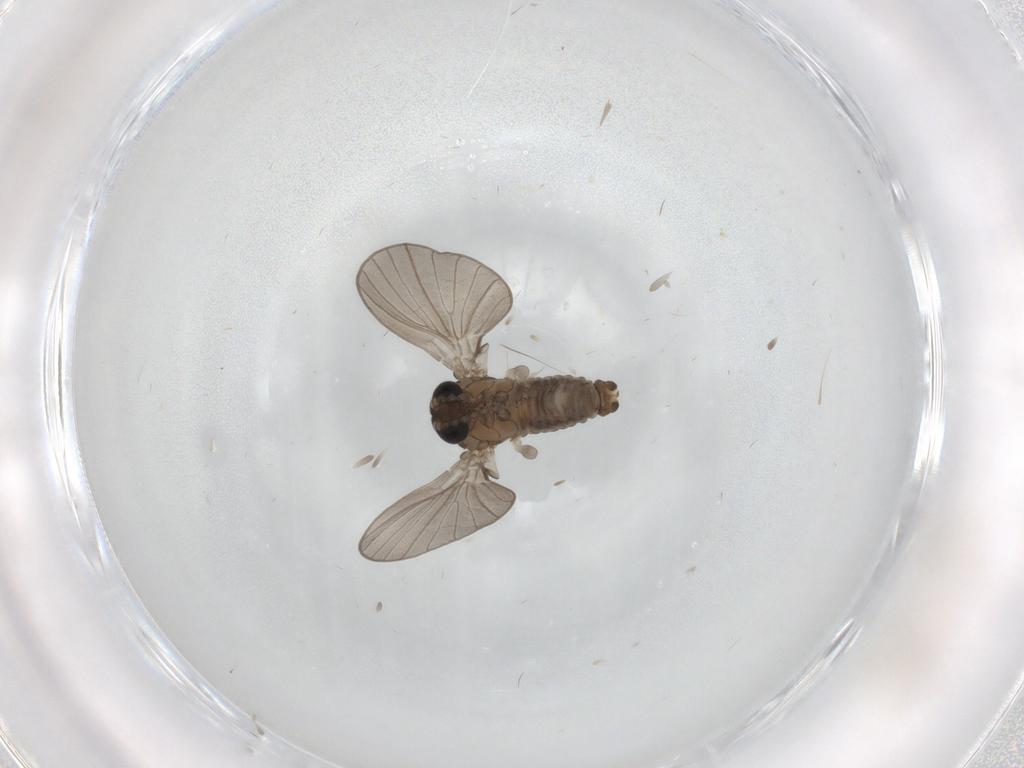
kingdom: Animalia
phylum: Arthropoda
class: Insecta
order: Diptera
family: Psychodidae
